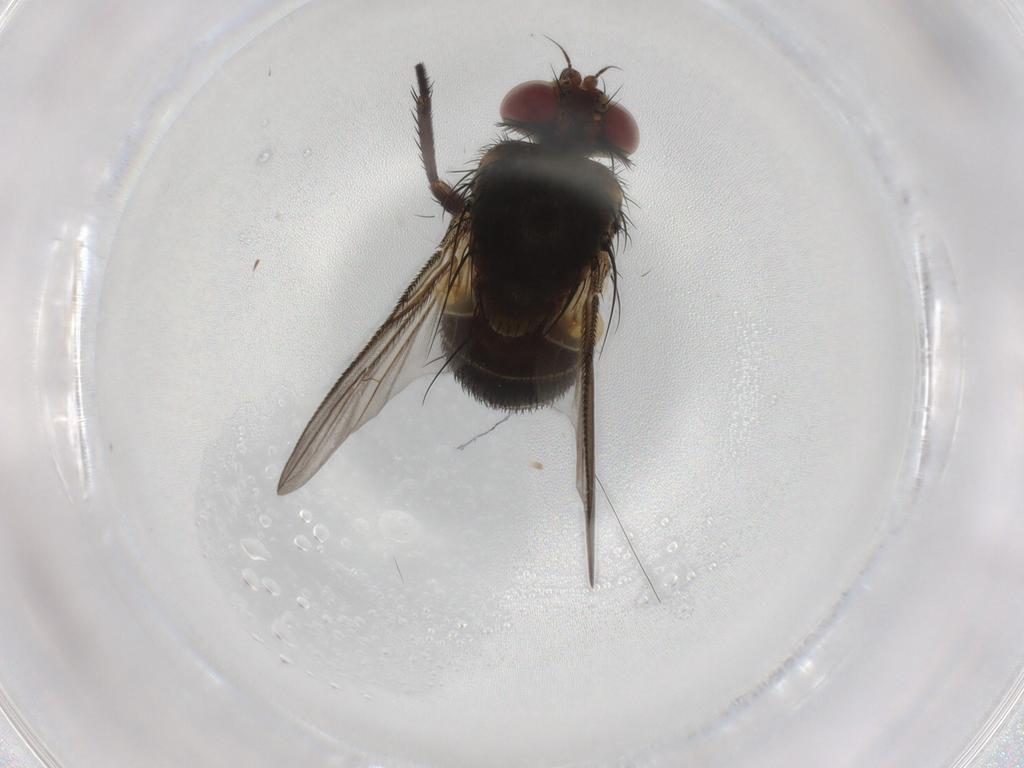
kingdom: Animalia
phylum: Arthropoda
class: Insecta
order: Diptera
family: Tachinidae
